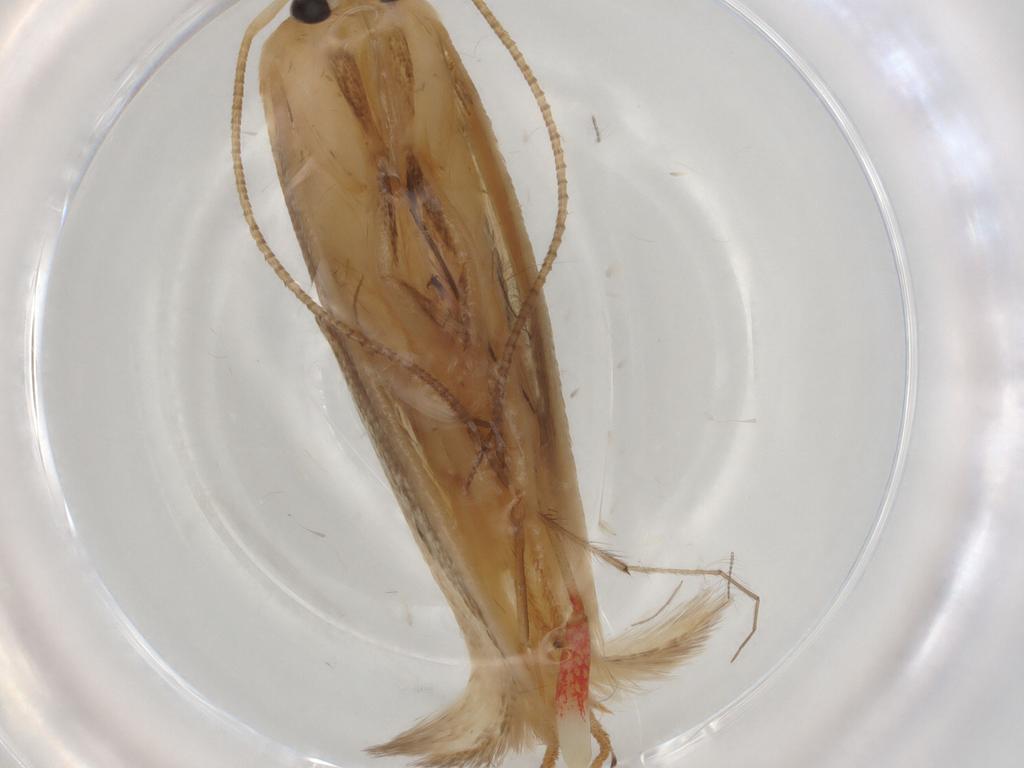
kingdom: Animalia
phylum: Arthropoda
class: Insecta
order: Lepidoptera
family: Geometridae
